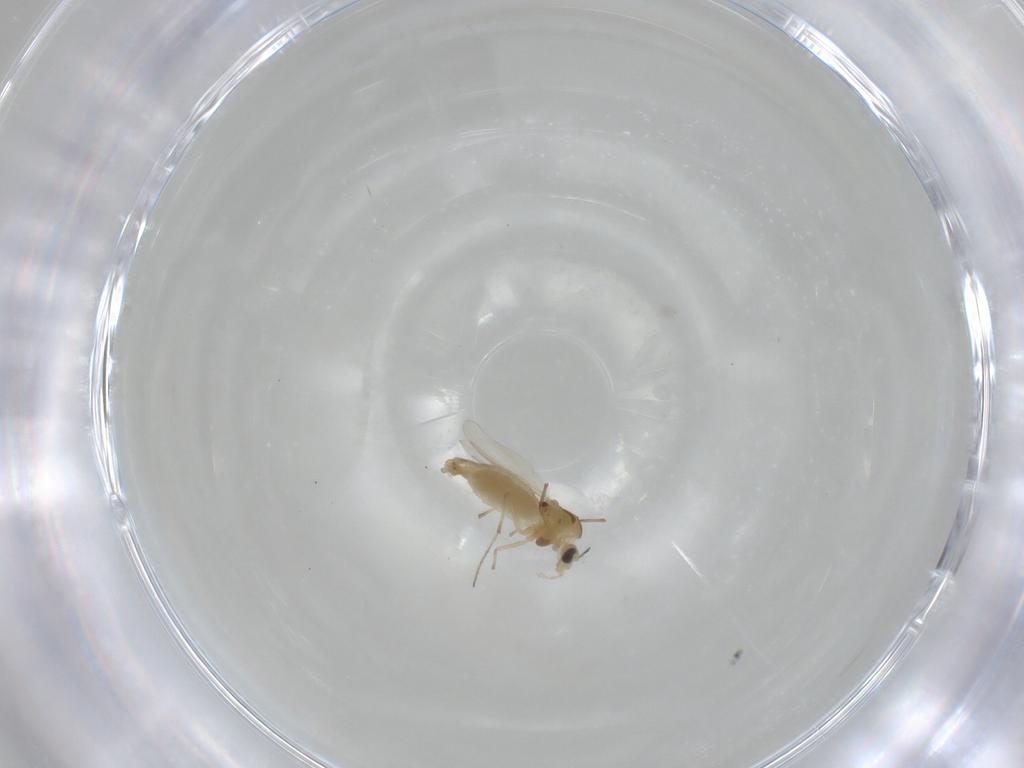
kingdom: Animalia
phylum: Arthropoda
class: Insecta
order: Diptera
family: Chironomidae
